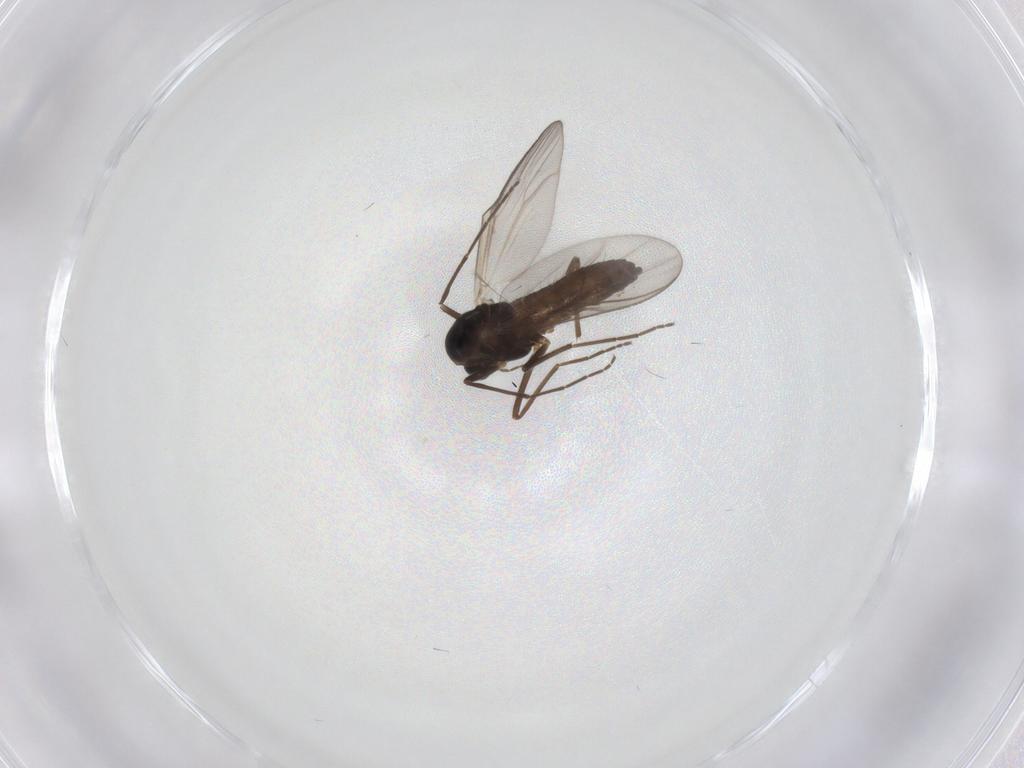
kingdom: Animalia
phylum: Arthropoda
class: Insecta
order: Diptera
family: Chironomidae
